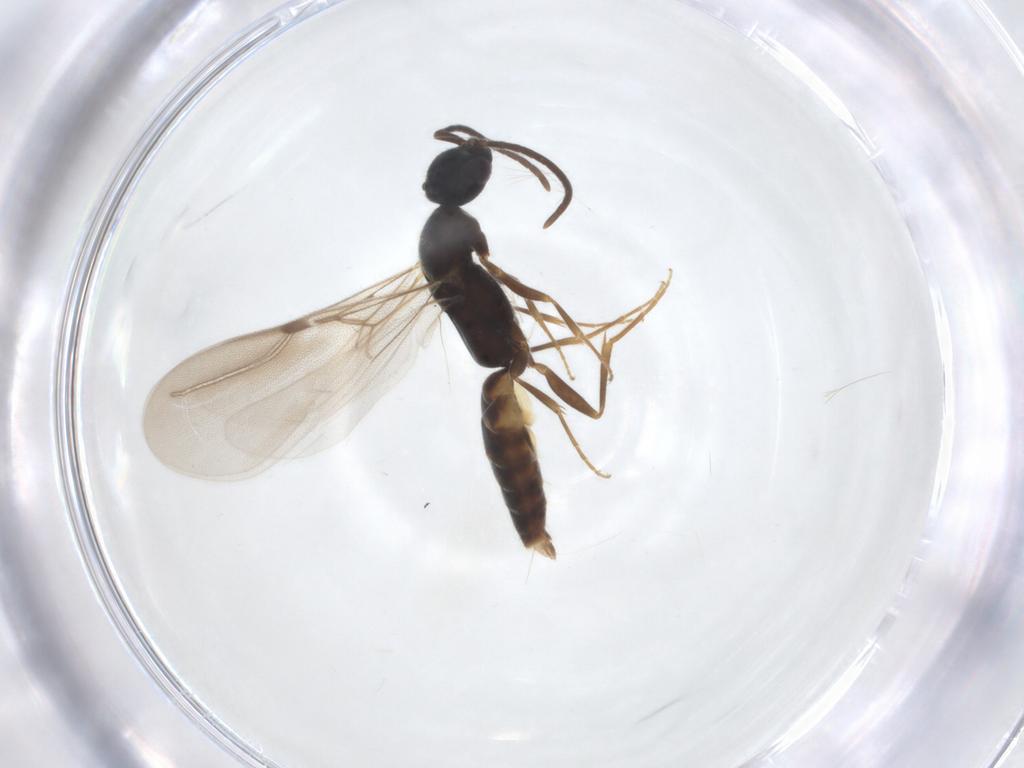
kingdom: Animalia
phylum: Arthropoda
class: Insecta
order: Hymenoptera
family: Bethylidae
